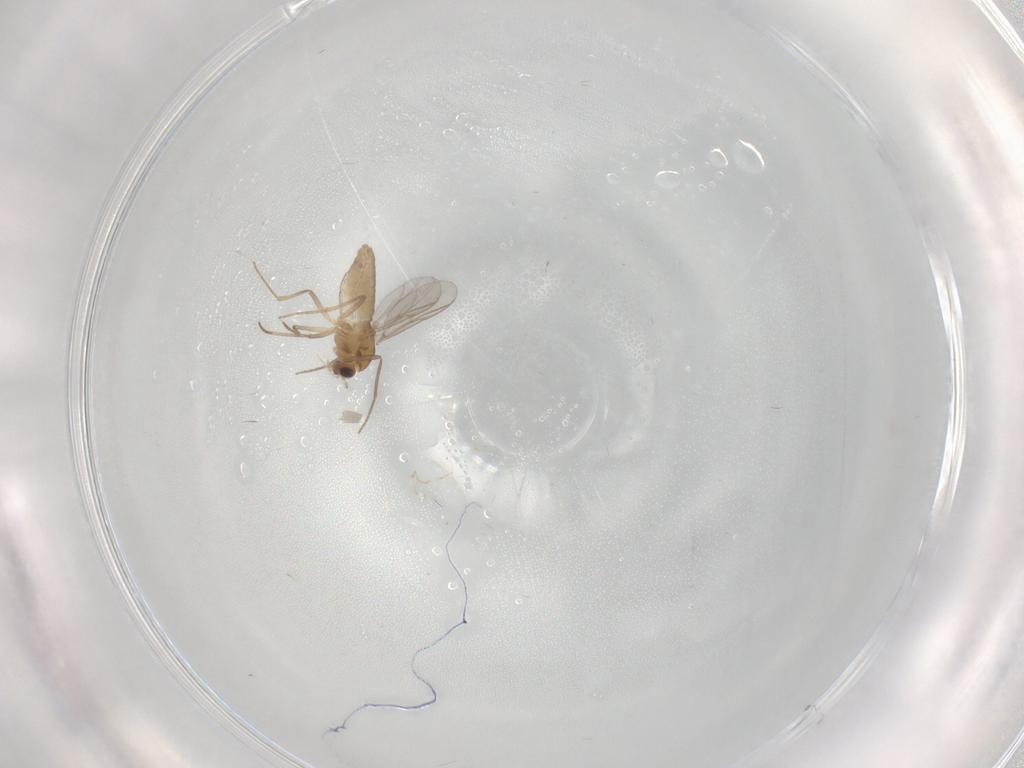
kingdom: Animalia
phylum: Arthropoda
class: Insecta
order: Diptera
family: Chironomidae
